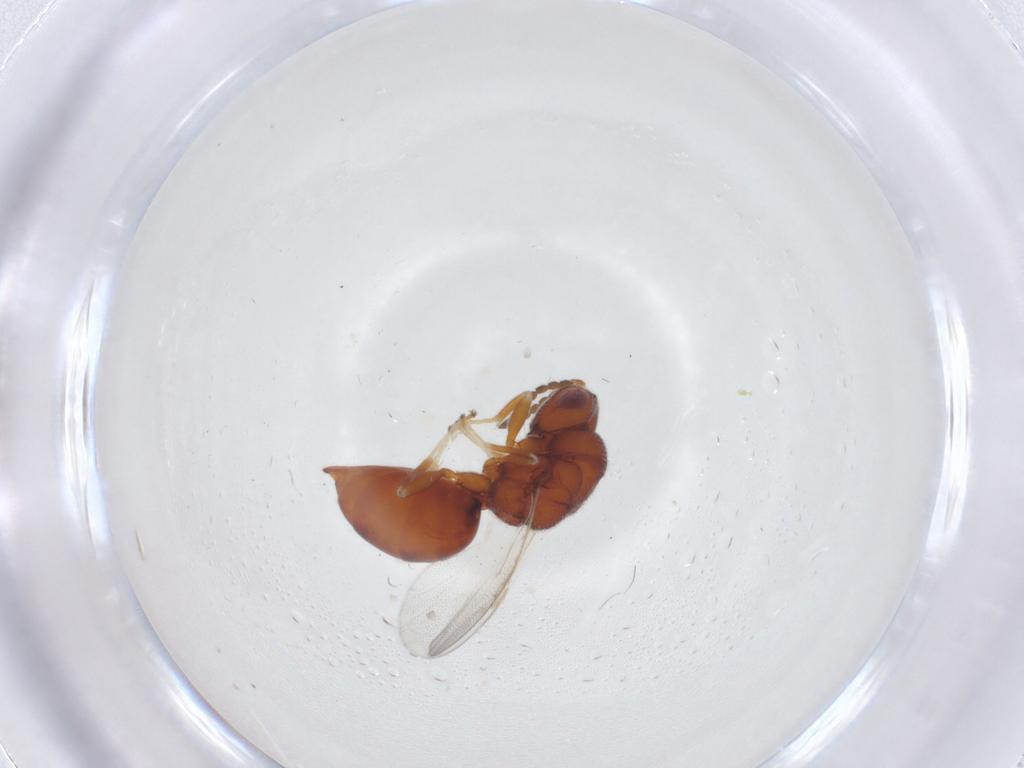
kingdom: Animalia
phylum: Arthropoda
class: Insecta
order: Hymenoptera
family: Eurytomidae
